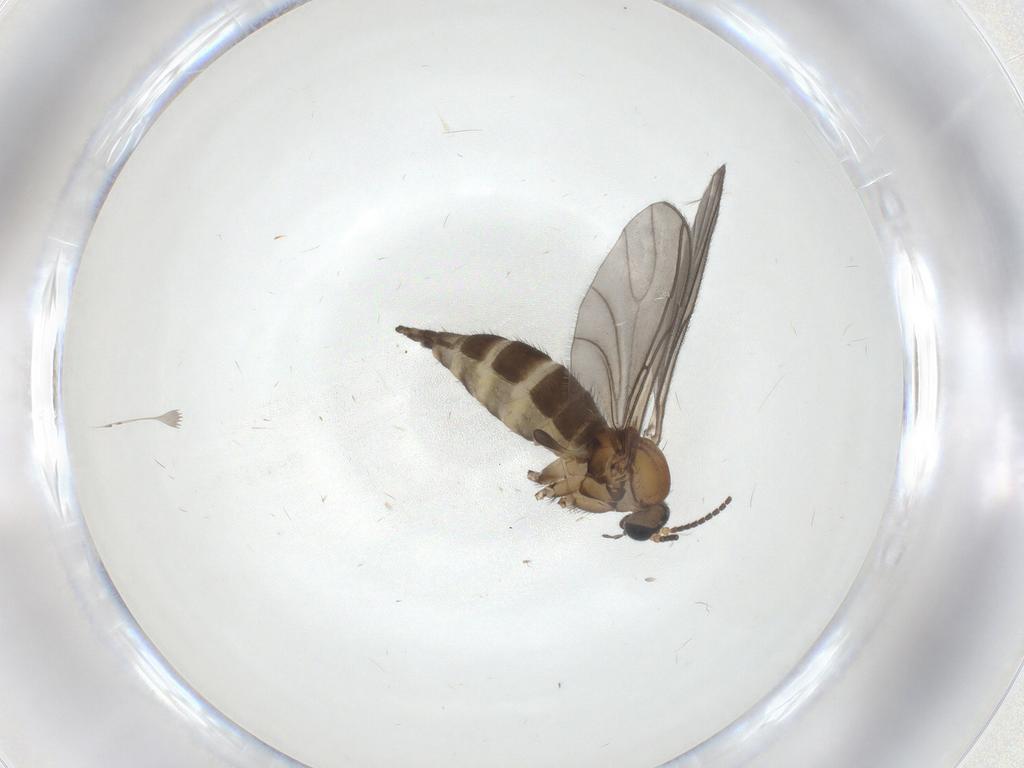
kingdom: Animalia
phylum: Arthropoda
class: Insecta
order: Diptera
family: Sciaridae
